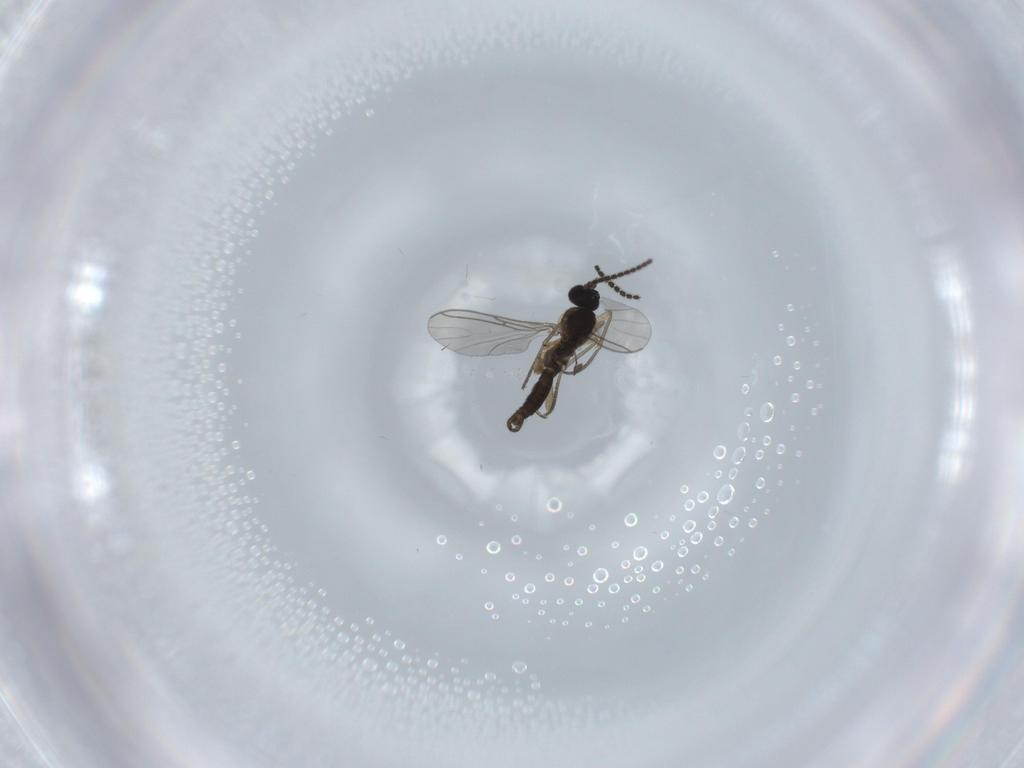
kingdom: Animalia
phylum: Arthropoda
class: Insecta
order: Diptera
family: Sciaridae
